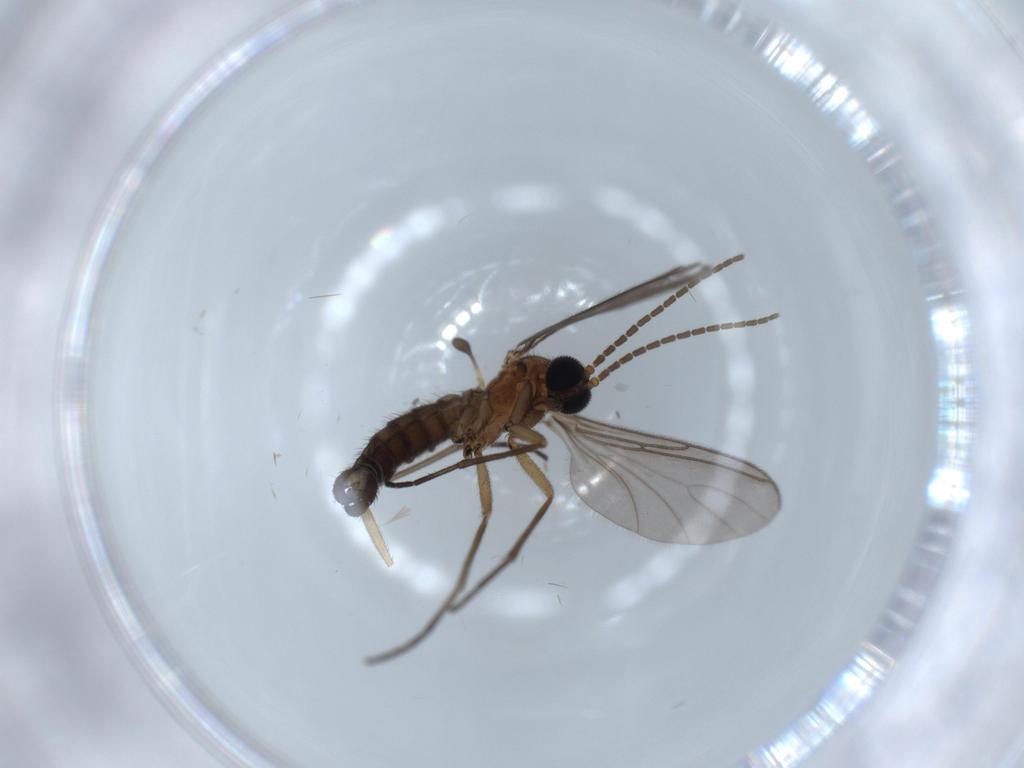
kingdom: Animalia
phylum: Arthropoda
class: Insecta
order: Diptera
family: Sciaridae
